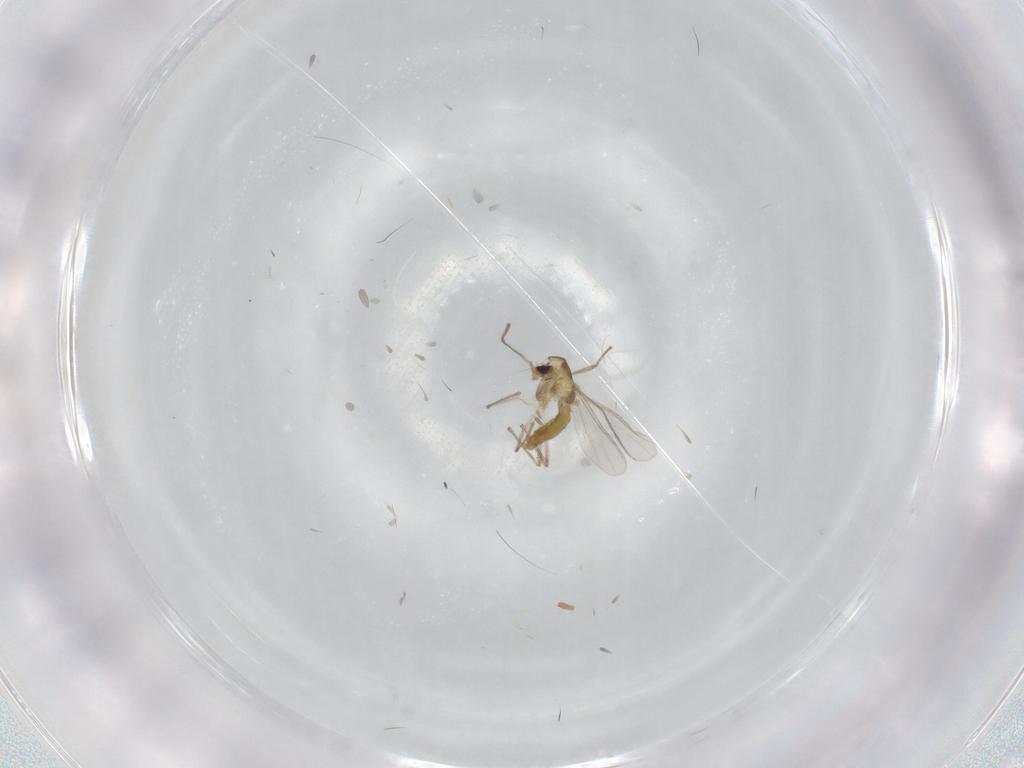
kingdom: Animalia
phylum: Arthropoda
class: Insecta
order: Diptera
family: Chironomidae
